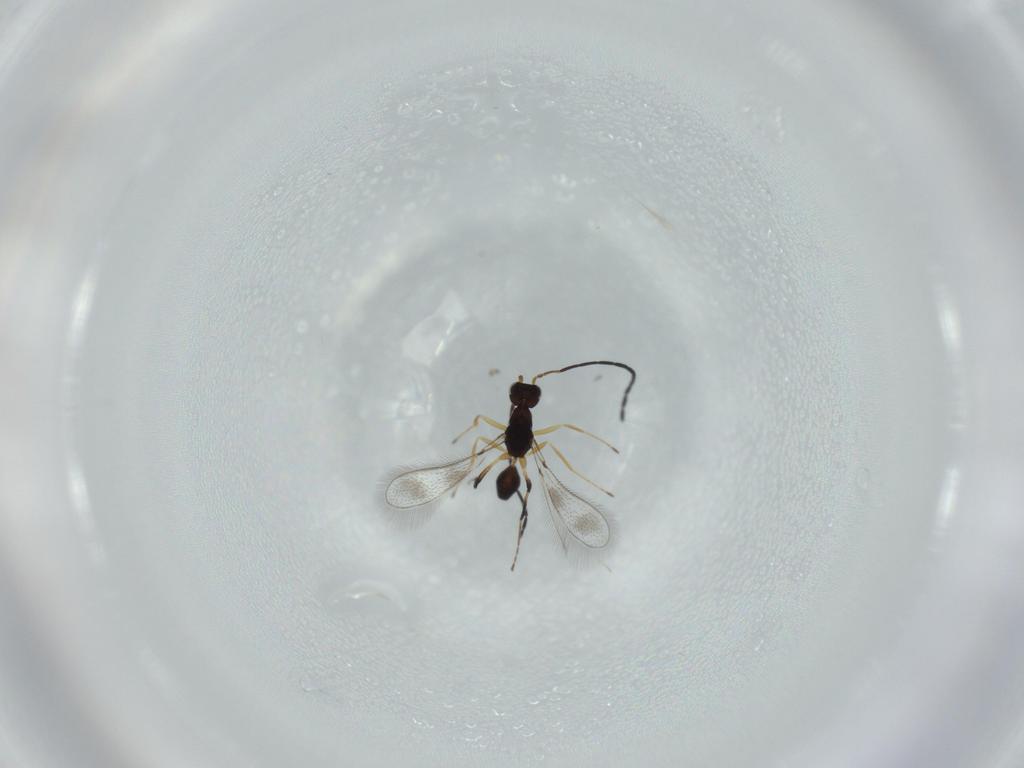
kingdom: Animalia
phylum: Arthropoda
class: Insecta
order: Hymenoptera
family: Mymaridae
